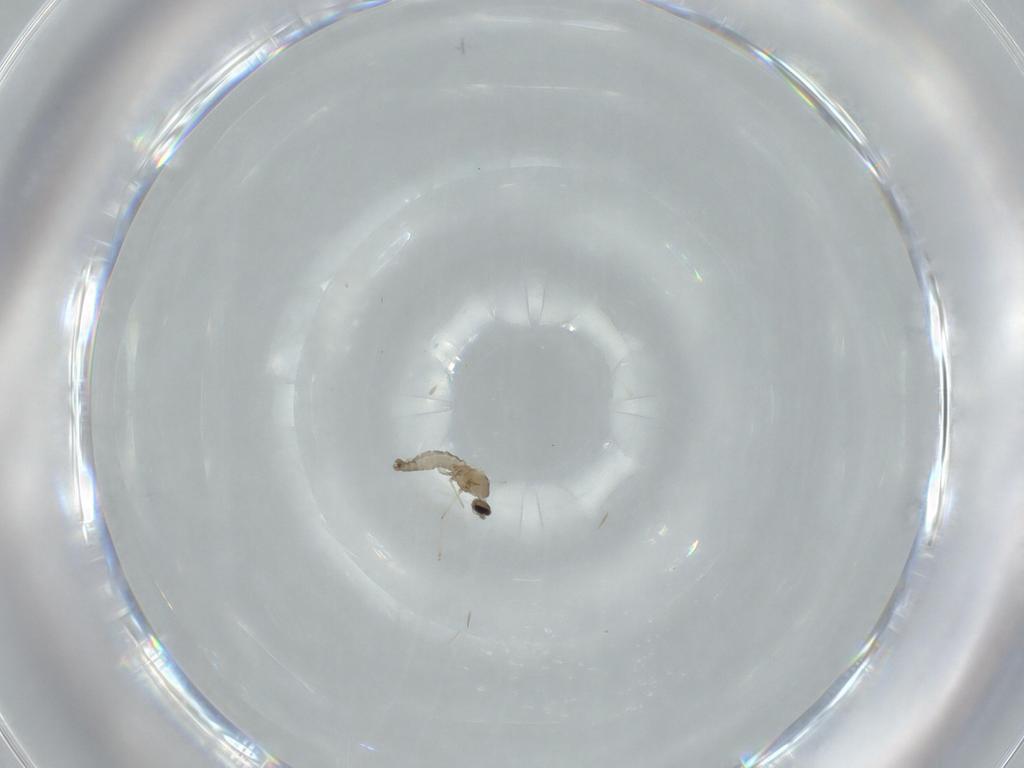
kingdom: Animalia
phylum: Arthropoda
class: Insecta
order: Diptera
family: Cecidomyiidae
